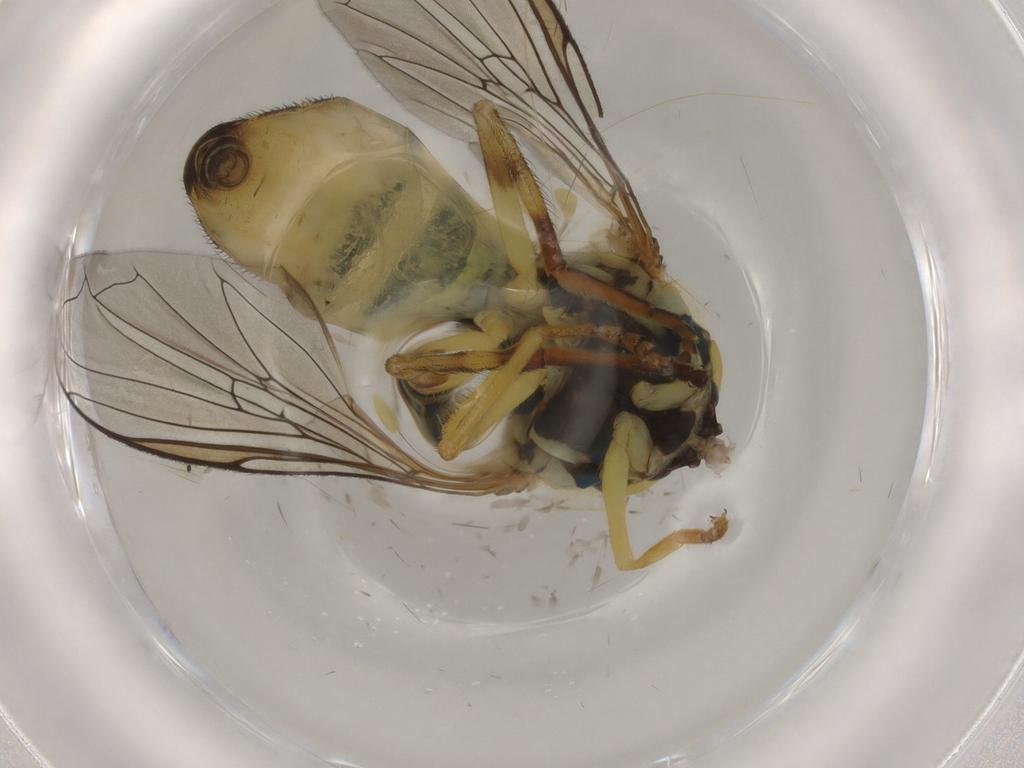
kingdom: Animalia
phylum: Arthropoda
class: Insecta
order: Diptera
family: Syrphidae
